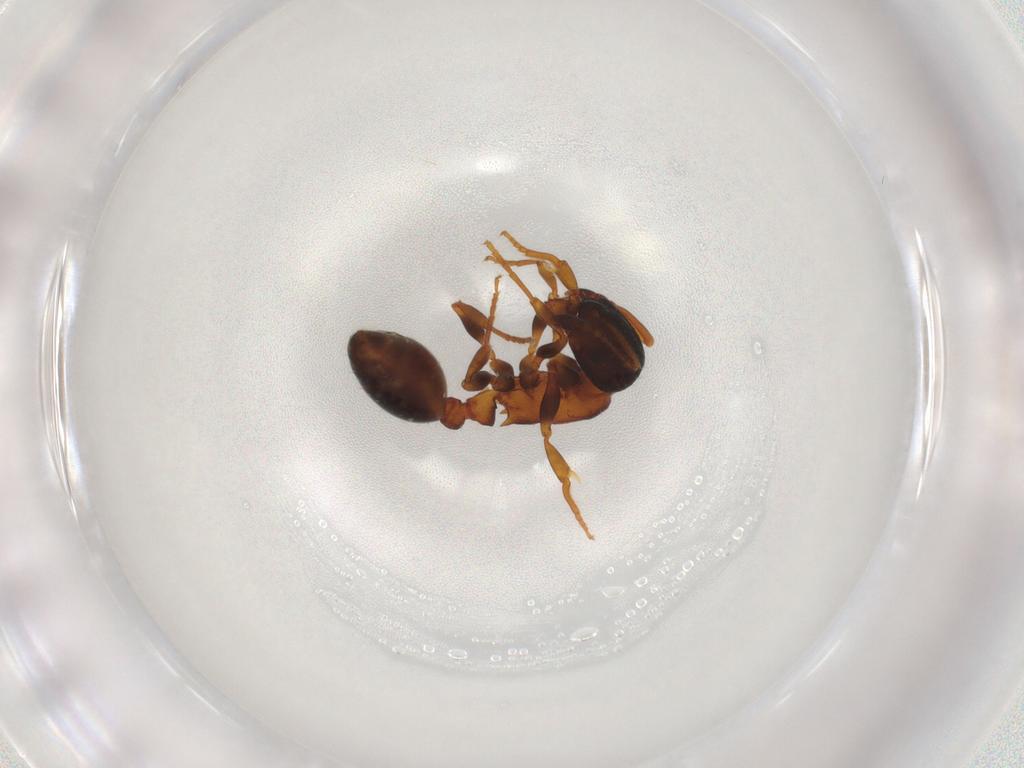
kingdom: Animalia
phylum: Arthropoda
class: Insecta
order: Hymenoptera
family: Formicidae
